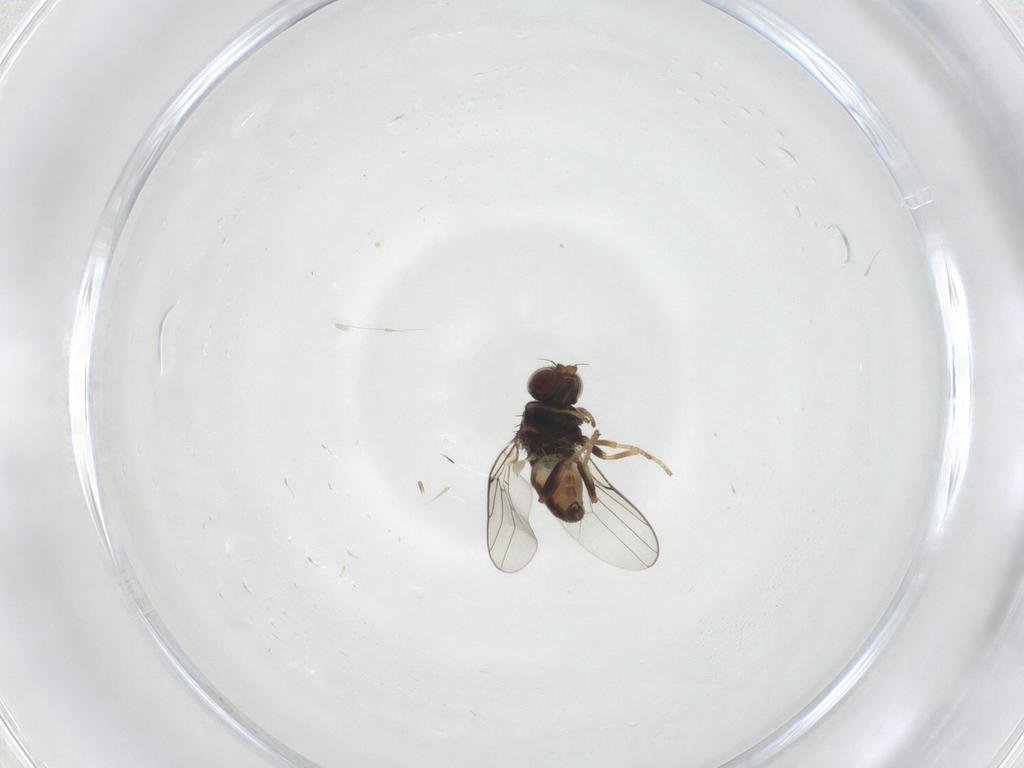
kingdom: Animalia
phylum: Arthropoda
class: Insecta
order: Diptera
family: Chloropidae
